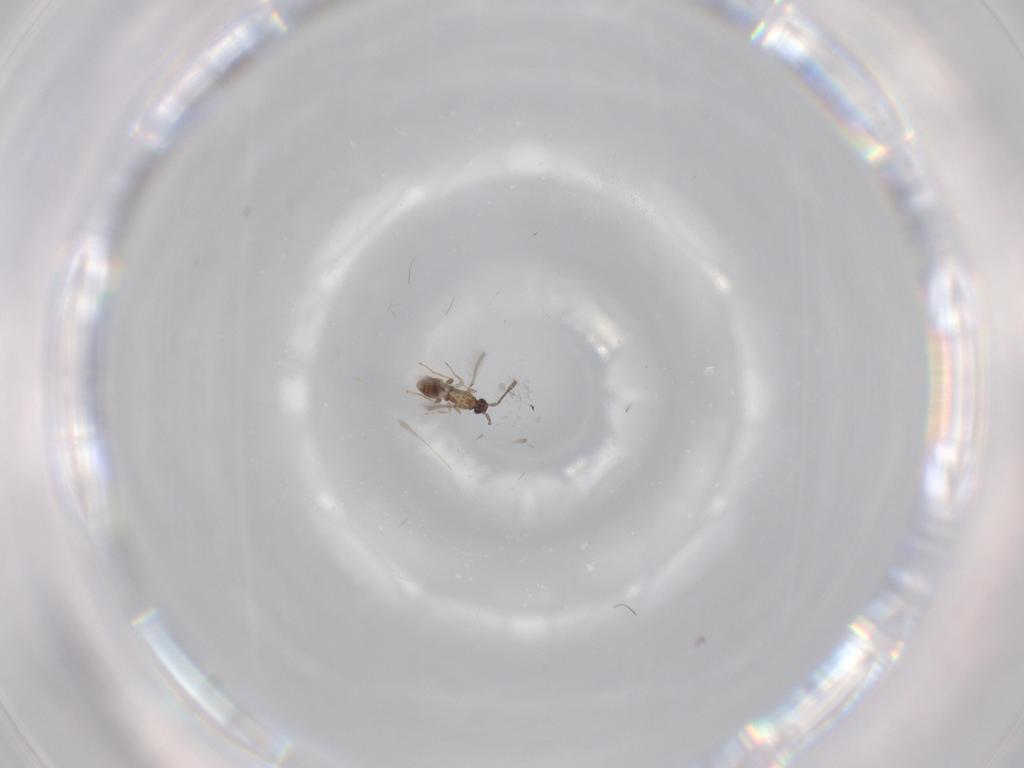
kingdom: Animalia
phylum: Arthropoda
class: Insecta
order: Hymenoptera
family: Mymaridae
